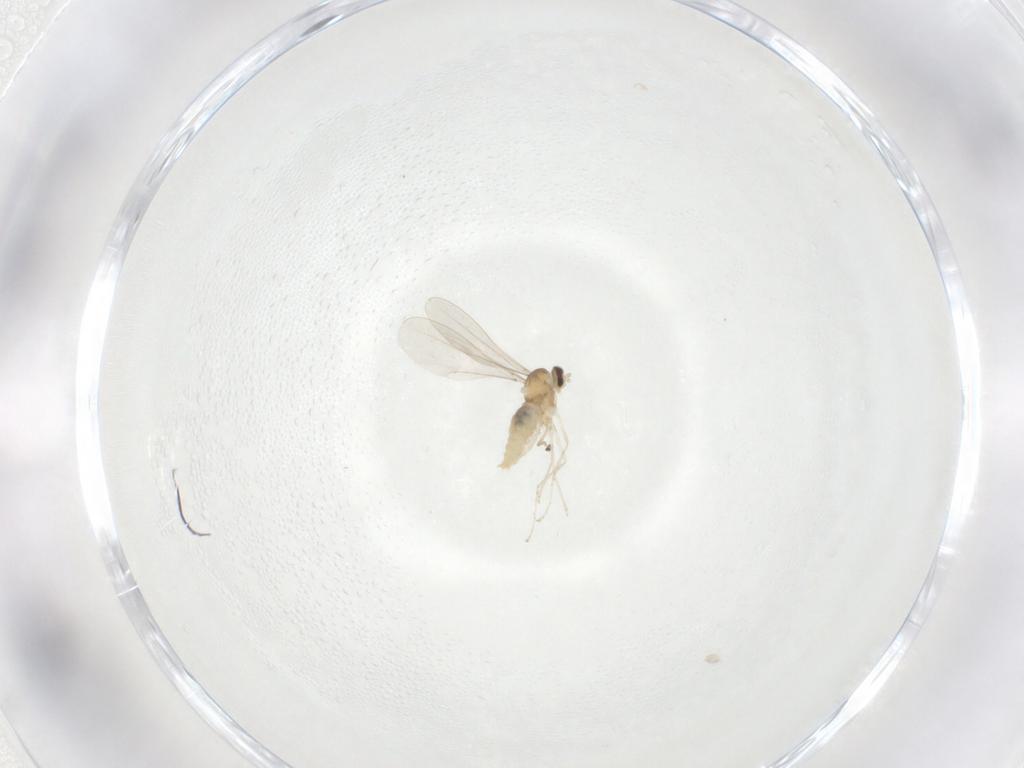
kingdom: Animalia
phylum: Arthropoda
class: Insecta
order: Diptera
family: Cecidomyiidae
